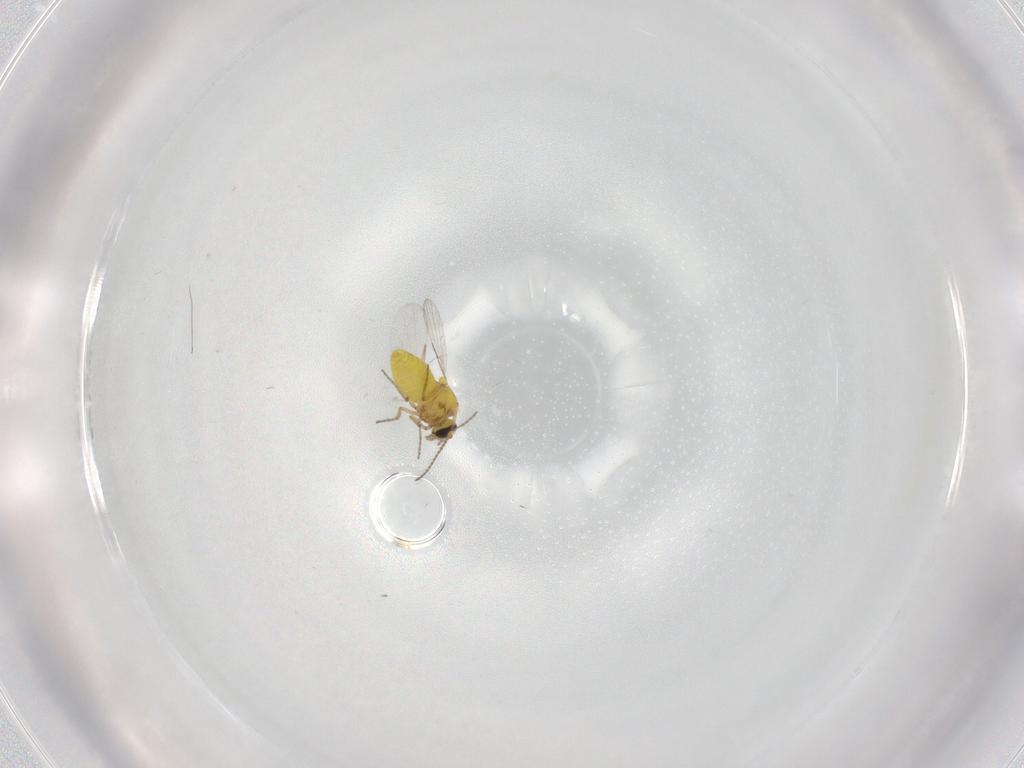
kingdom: Animalia
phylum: Arthropoda
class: Insecta
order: Diptera
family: Ceratopogonidae
